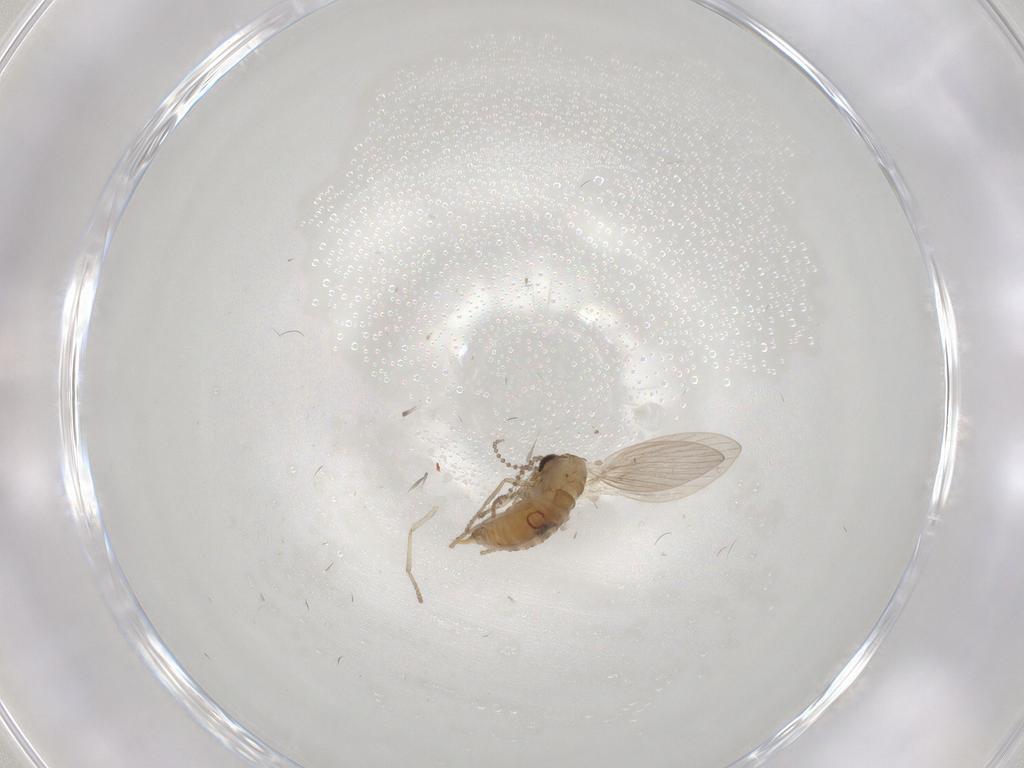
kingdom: Animalia
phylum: Arthropoda
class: Insecta
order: Diptera
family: Psychodidae
